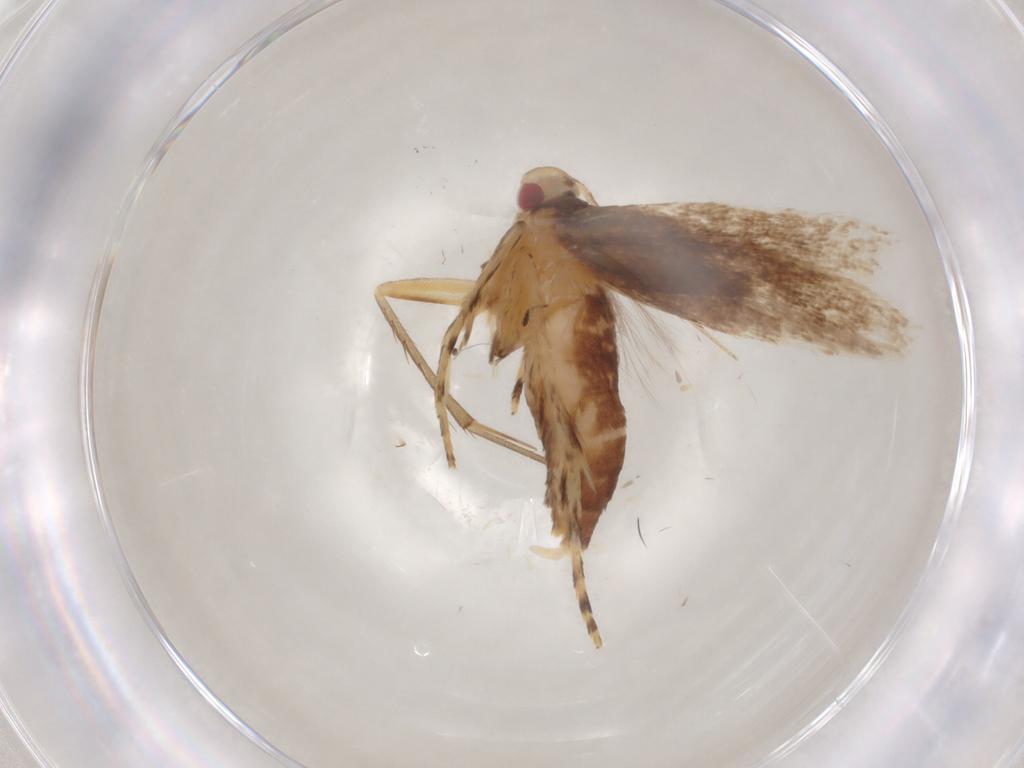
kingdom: Animalia
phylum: Arthropoda
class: Insecta
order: Lepidoptera
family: Cosmopterigidae
